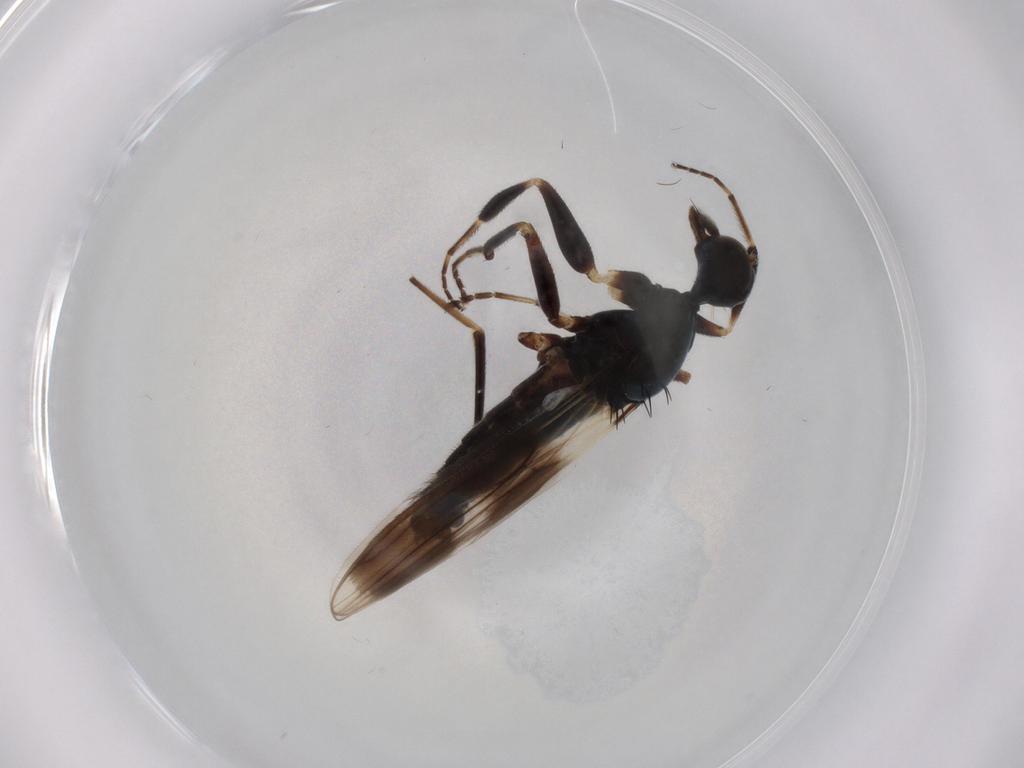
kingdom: Animalia
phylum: Arthropoda
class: Insecta
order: Diptera
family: Hybotidae
